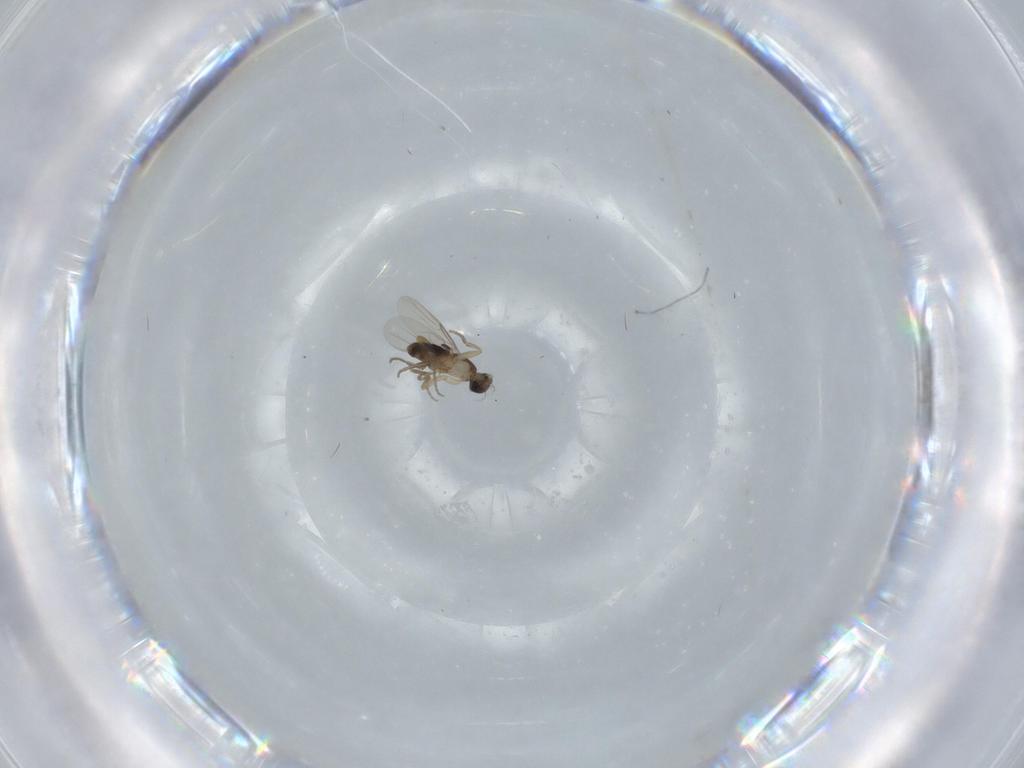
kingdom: Animalia
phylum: Arthropoda
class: Insecta
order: Diptera
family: Phoridae
